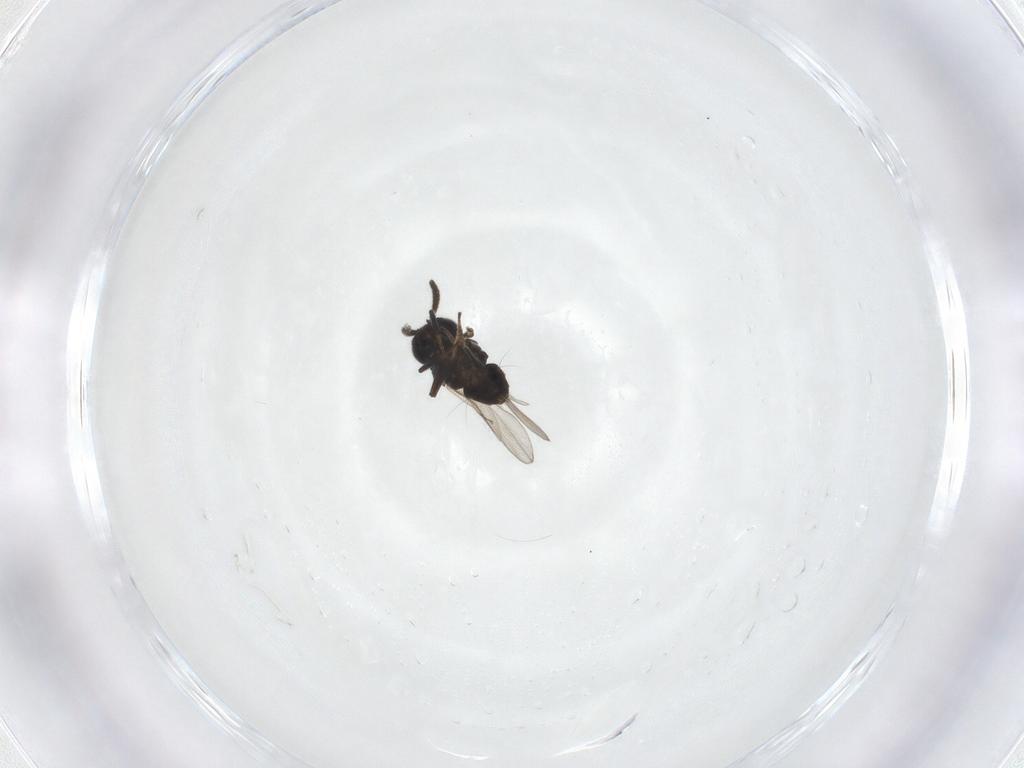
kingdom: Animalia
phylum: Arthropoda
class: Insecta
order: Hymenoptera
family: Encyrtidae
